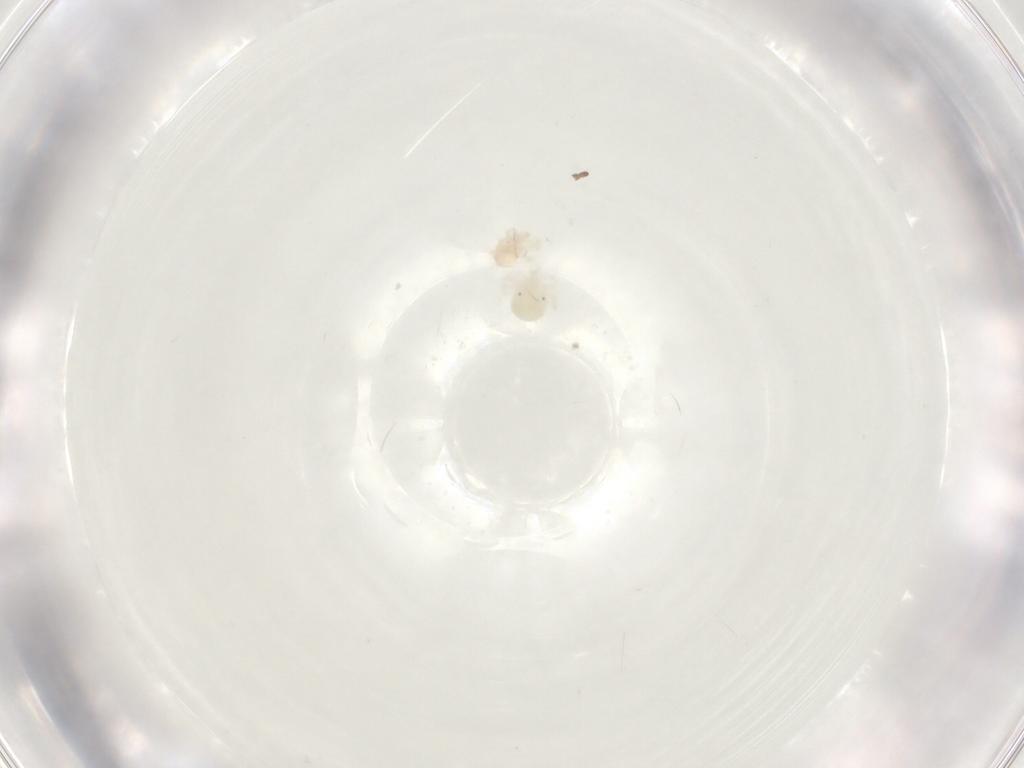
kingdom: Animalia
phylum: Arthropoda
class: Arachnida
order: Trombidiformes
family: Anystidae
